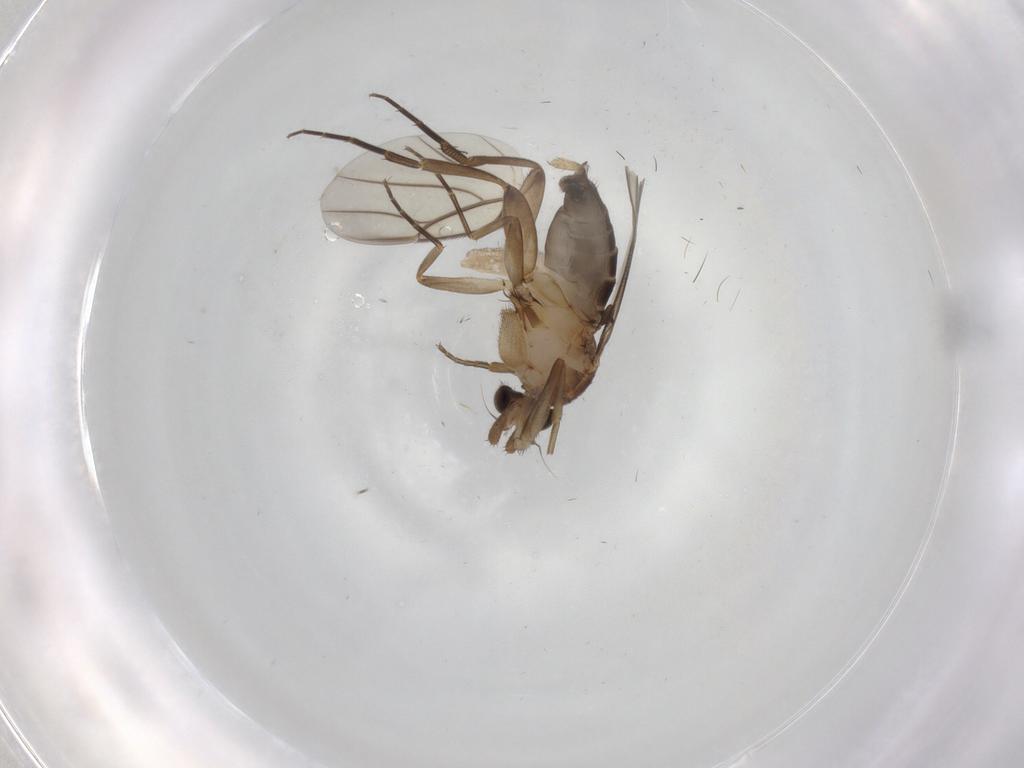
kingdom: Animalia
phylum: Arthropoda
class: Insecta
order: Diptera
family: Phoridae
